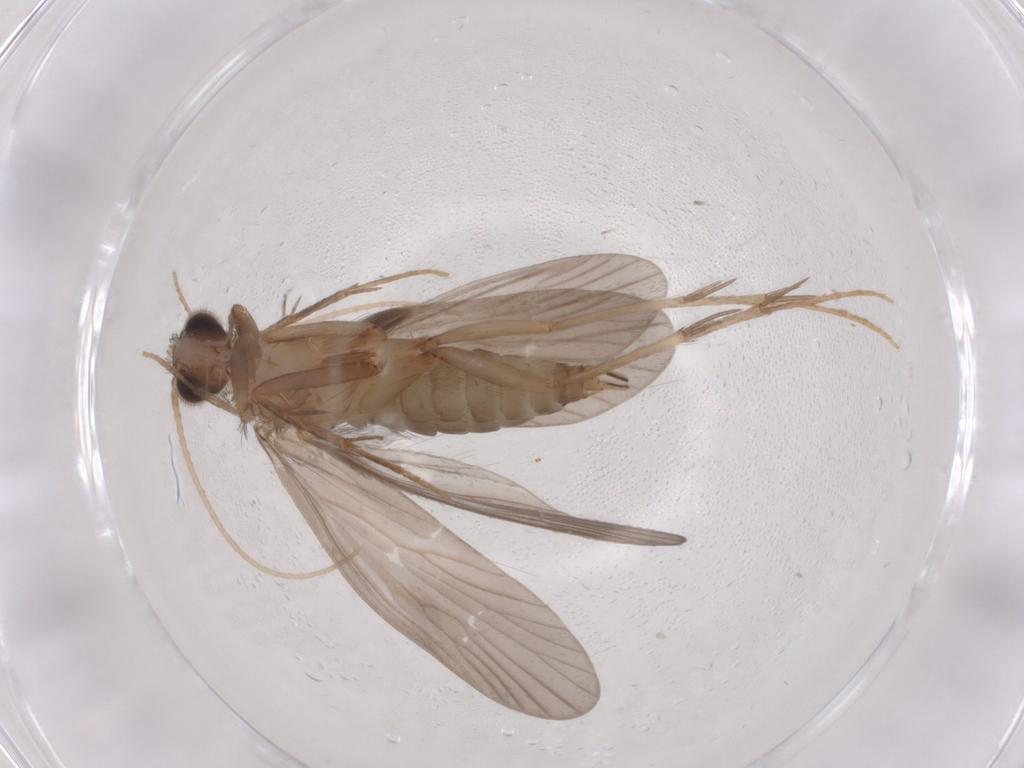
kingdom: Animalia
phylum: Arthropoda
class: Insecta
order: Trichoptera
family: Philopotamidae
